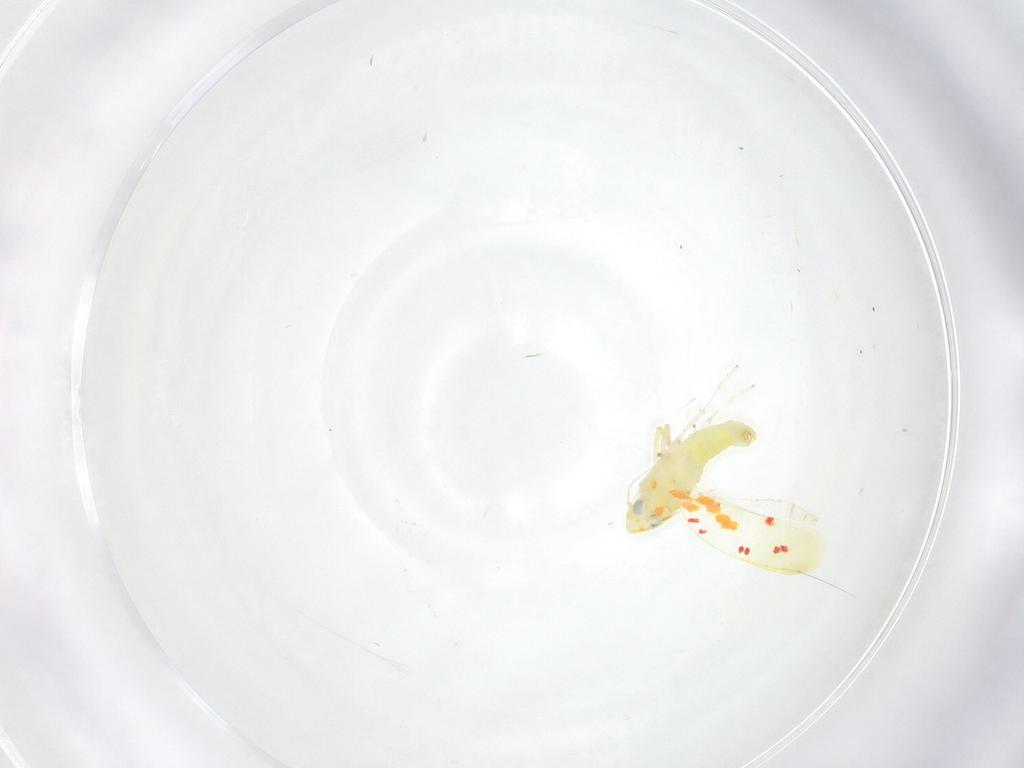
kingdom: Animalia
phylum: Arthropoda
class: Insecta
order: Hemiptera
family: Cicadellidae
